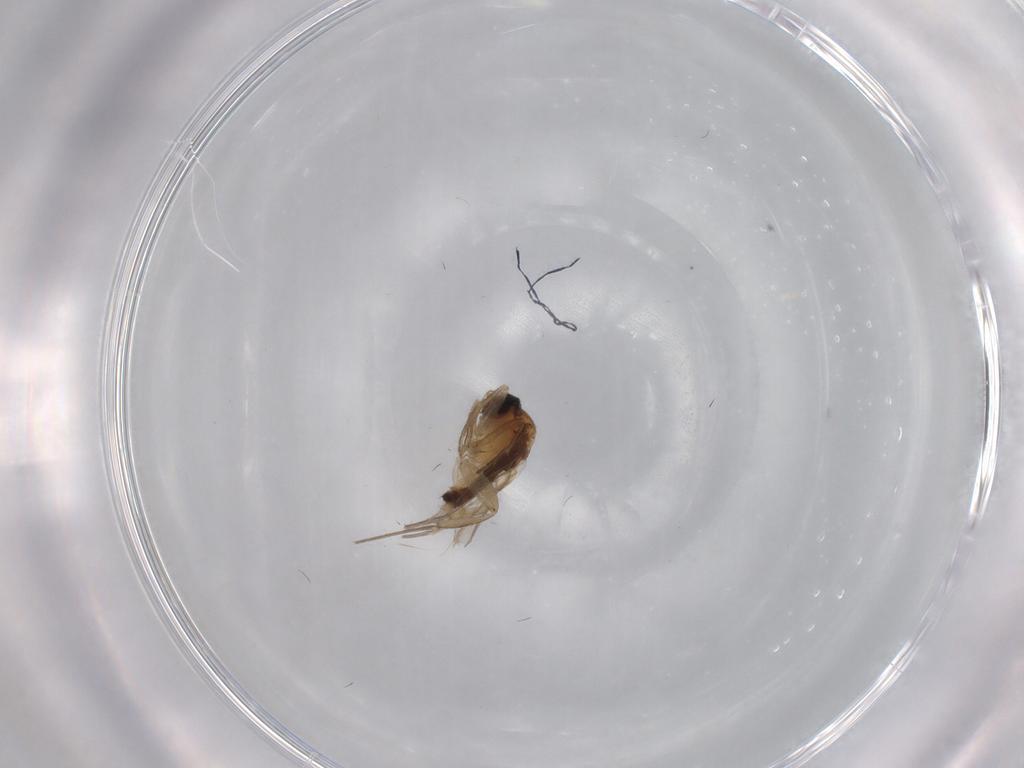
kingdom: Animalia
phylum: Arthropoda
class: Insecta
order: Diptera
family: Micropezidae
